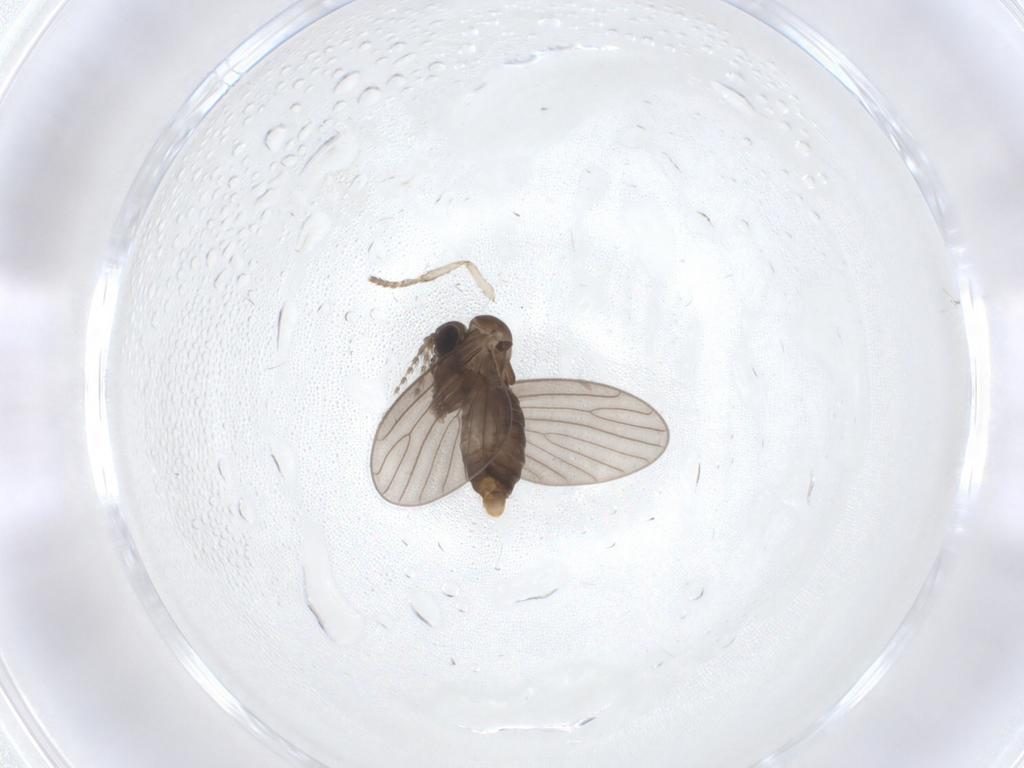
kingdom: Animalia
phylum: Arthropoda
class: Insecta
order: Diptera
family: Psychodidae
